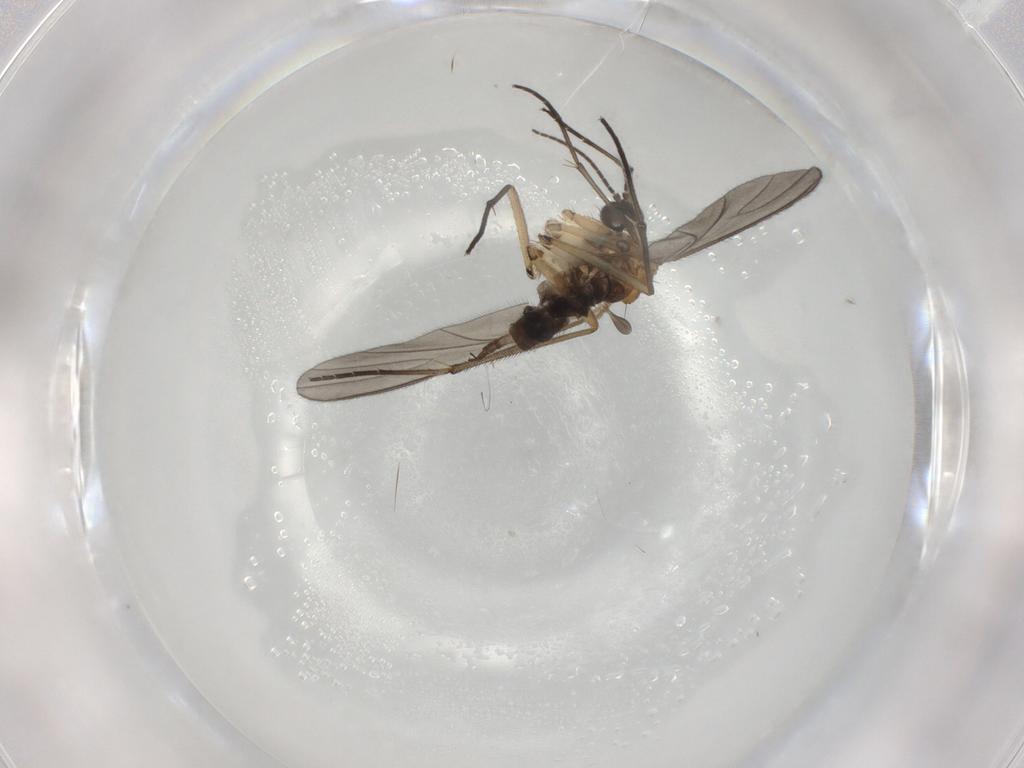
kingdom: Animalia
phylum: Arthropoda
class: Insecta
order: Diptera
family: Sciaridae
